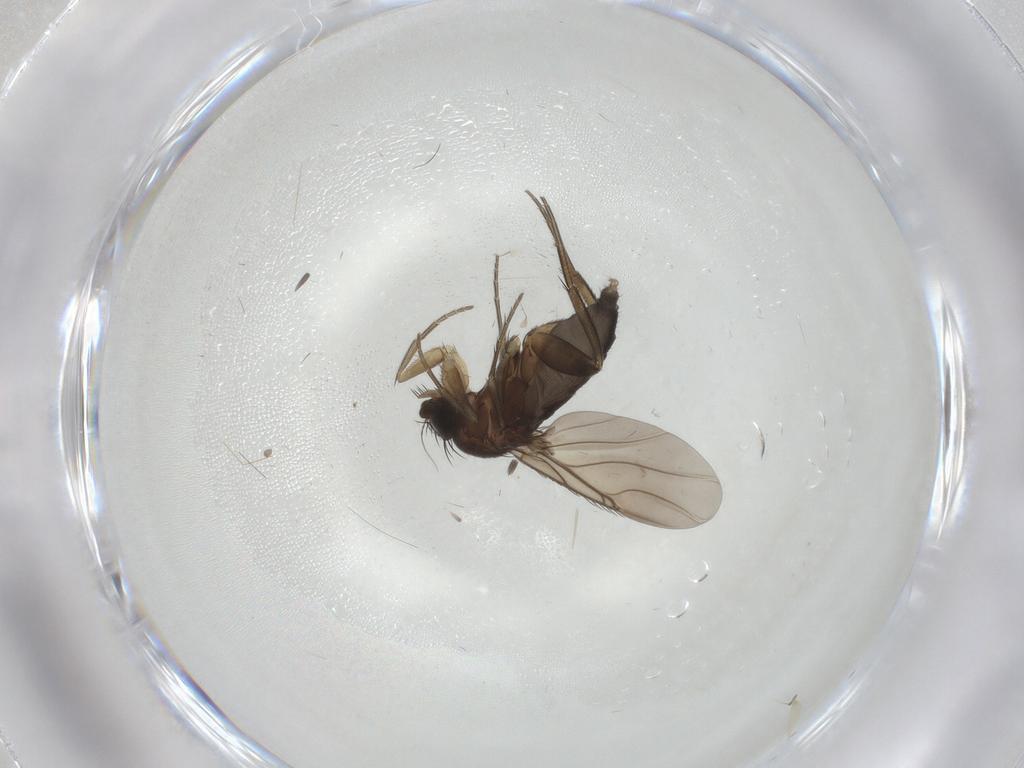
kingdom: Animalia
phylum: Arthropoda
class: Insecta
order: Diptera
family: Phoridae
